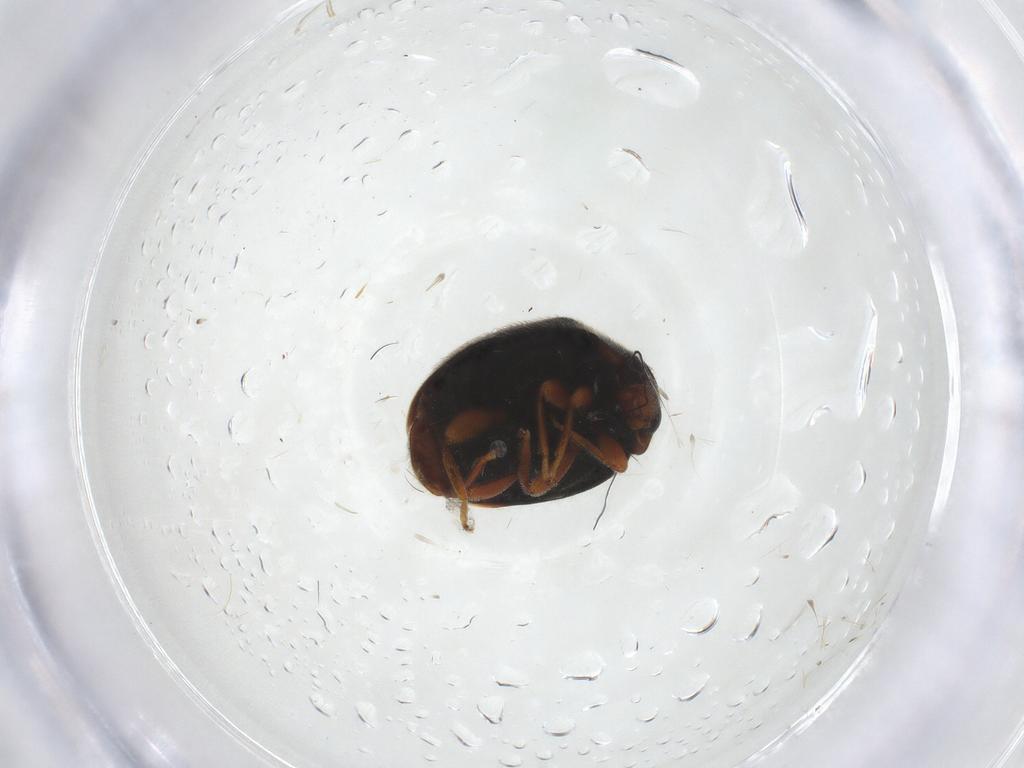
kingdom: Animalia
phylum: Arthropoda
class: Insecta
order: Coleoptera
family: Coccinellidae
